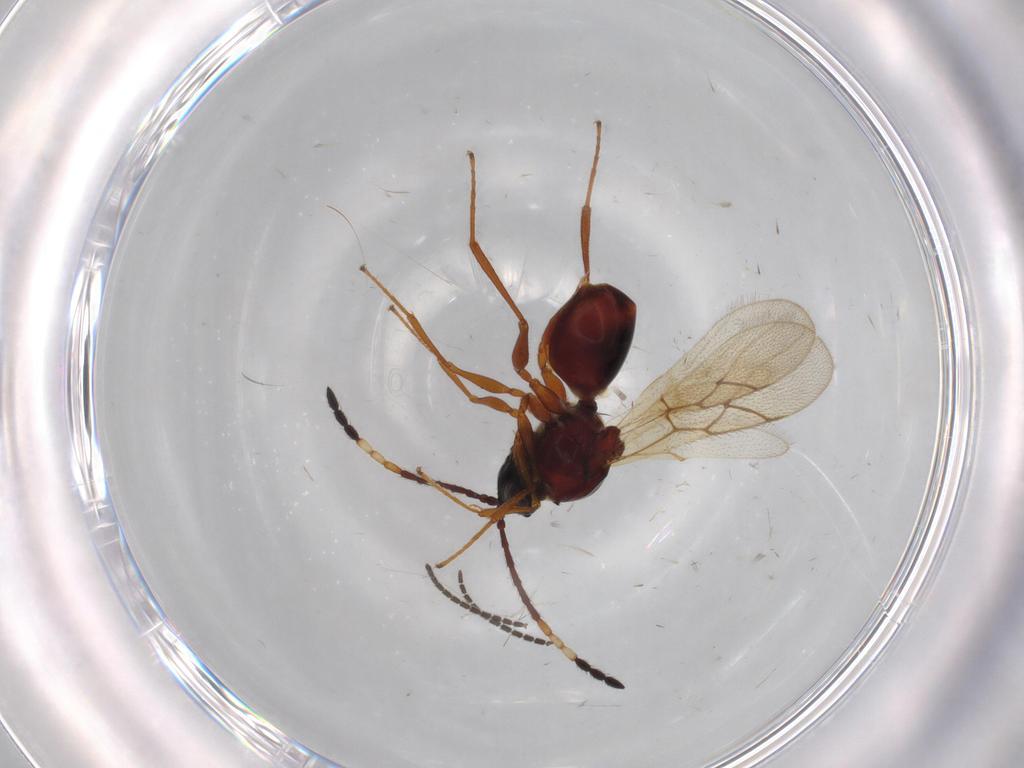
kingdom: Animalia
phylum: Arthropoda
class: Insecta
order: Hymenoptera
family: Figitidae
